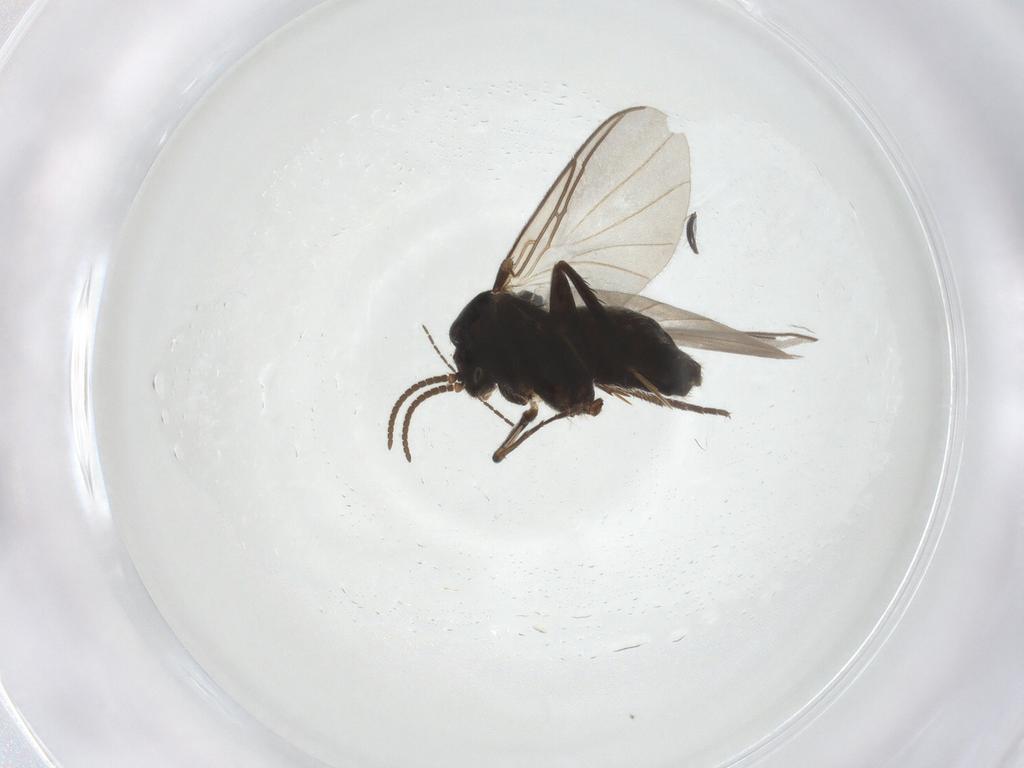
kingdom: Animalia
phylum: Arthropoda
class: Insecta
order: Diptera
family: Mycetophilidae
